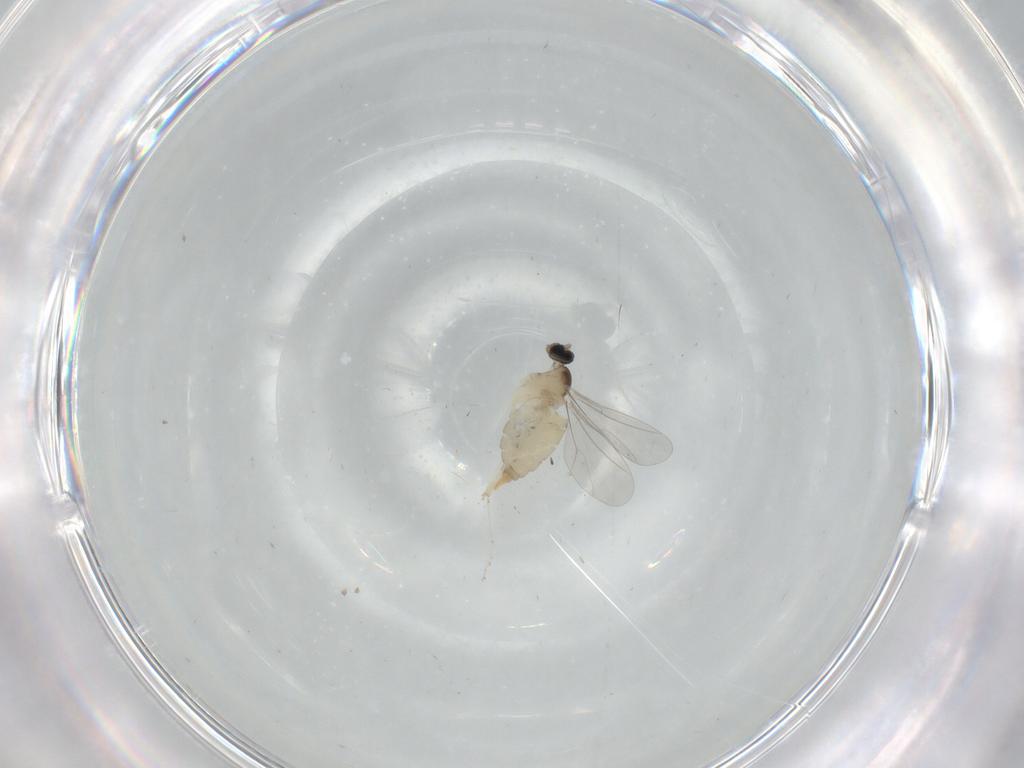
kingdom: Animalia
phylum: Arthropoda
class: Insecta
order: Diptera
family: Cecidomyiidae
